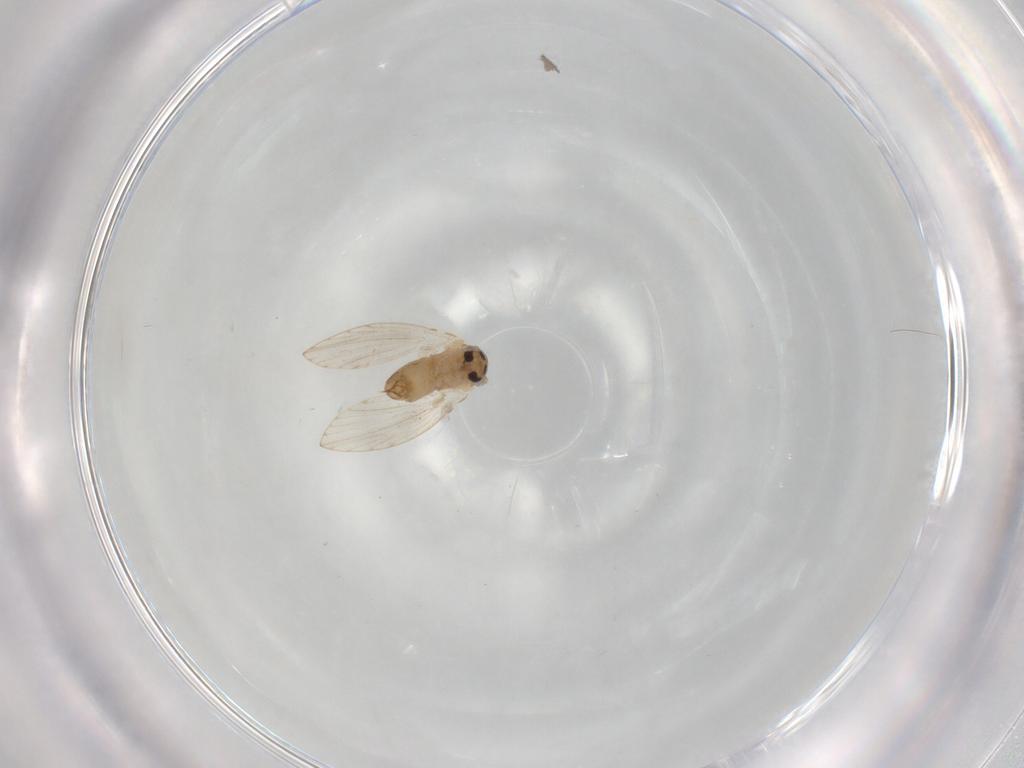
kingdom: Animalia
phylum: Arthropoda
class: Insecta
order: Diptera
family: Psychodidae
